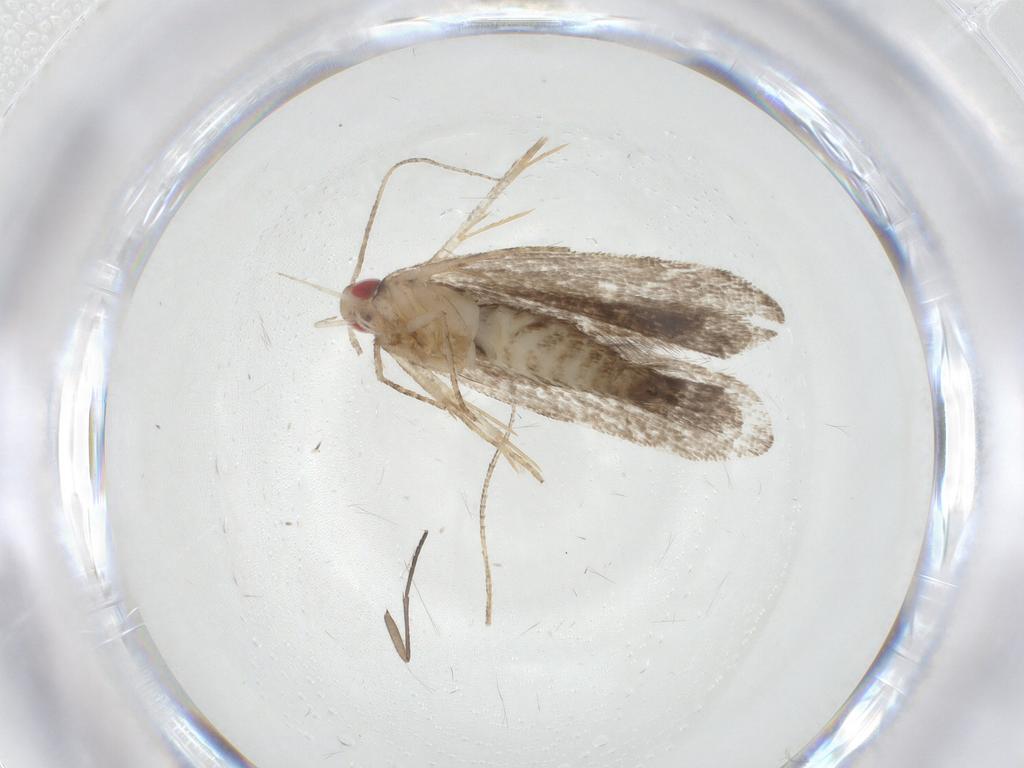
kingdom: Animalia
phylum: Arthropoda
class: Insecta
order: Lepidoptera
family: Gelechiidae
